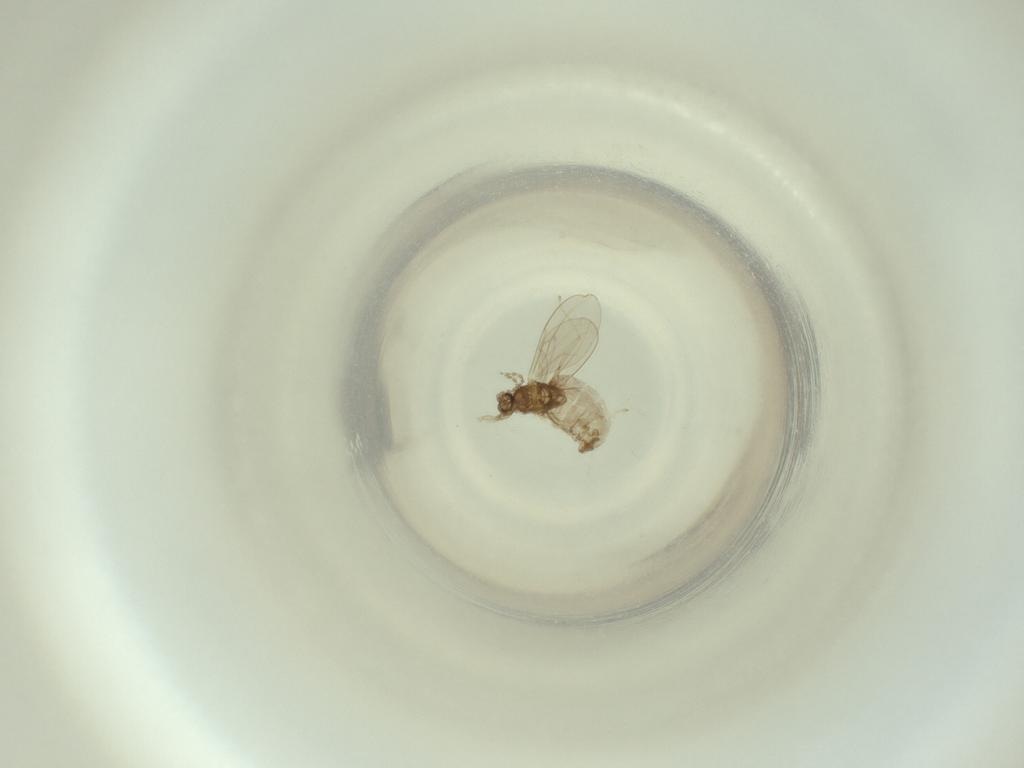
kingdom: Animalia
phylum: Arthropoda
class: Insecta
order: Diptera
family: Cecidomyiidae
